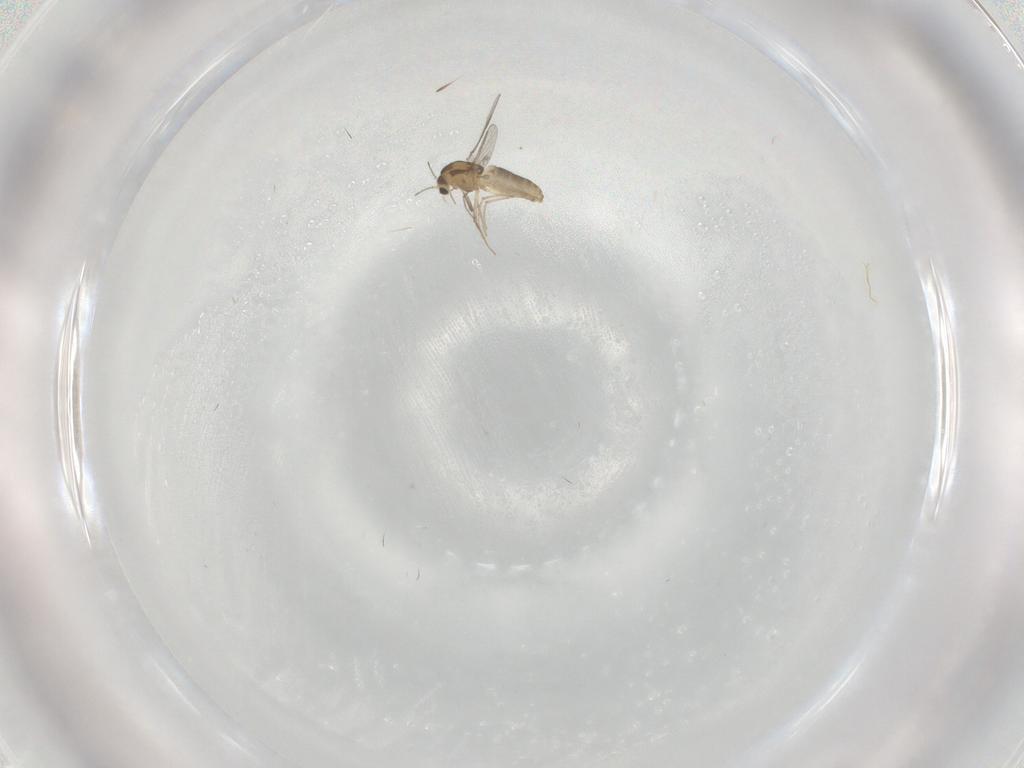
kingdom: Animalia
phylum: Arthropoda
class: Insecta
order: Diptera
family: Chironomidae
